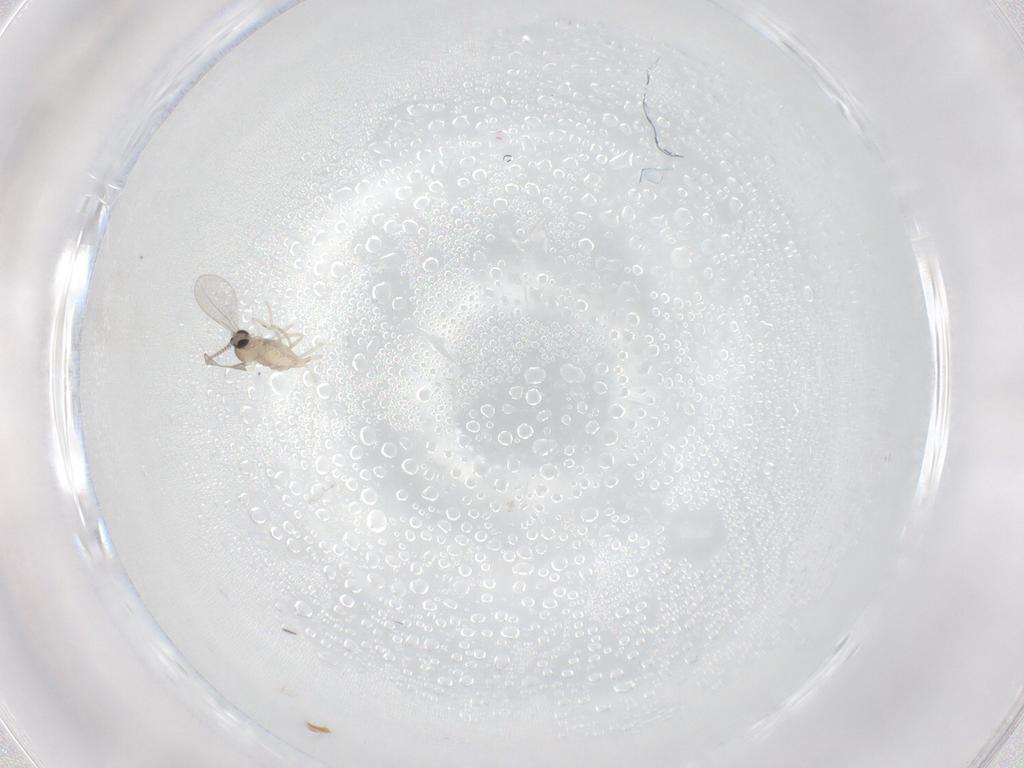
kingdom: Animalia
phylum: Arthropoda
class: Insecta
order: Diptera
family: Cecidomyiidae
